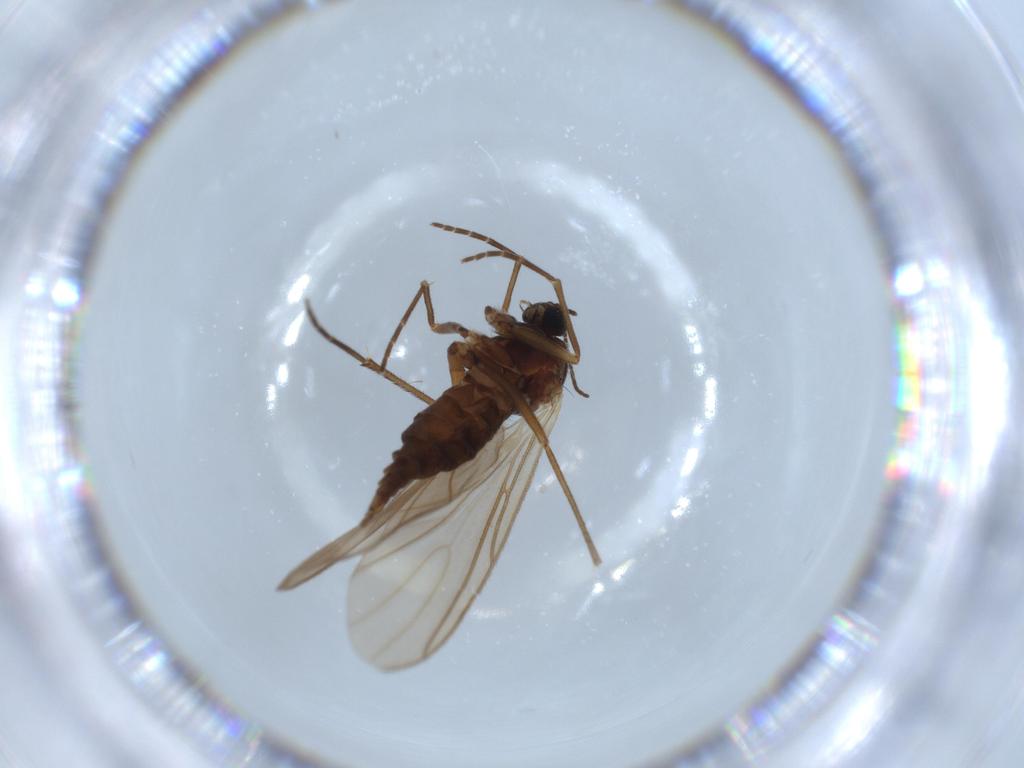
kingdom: Animalia
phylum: Arthropoda
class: Insecta
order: Diptera
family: Sciaridae
